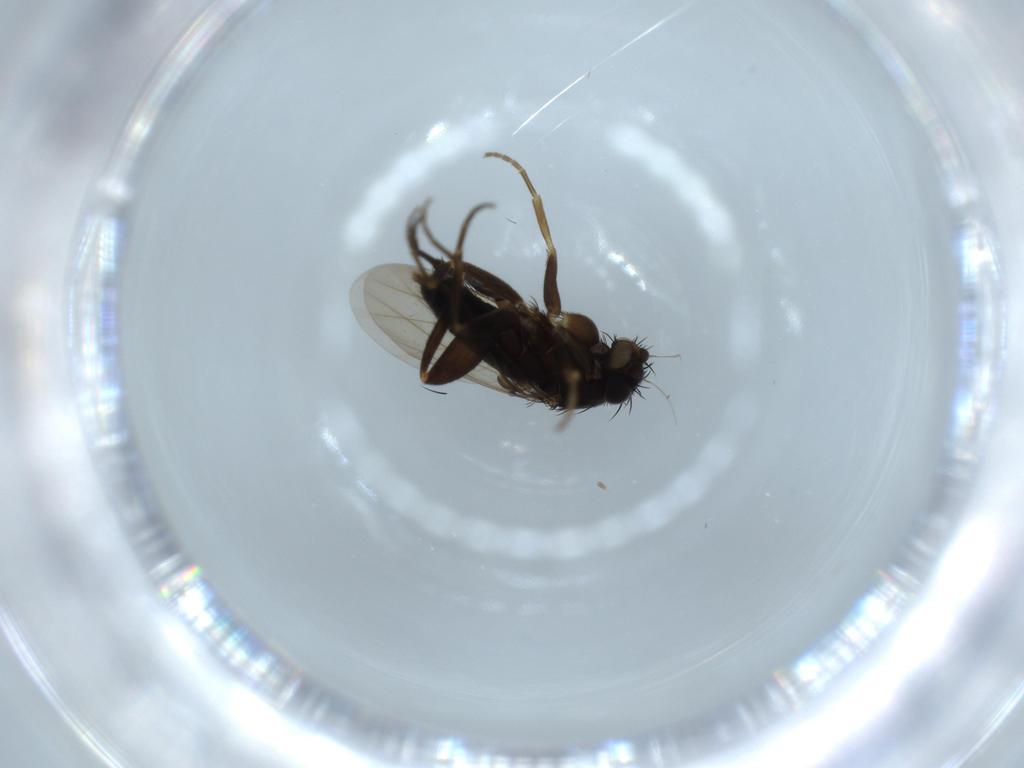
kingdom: Animalia
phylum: Arthropoda
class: Insecta
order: Diptera
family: Phoridae
